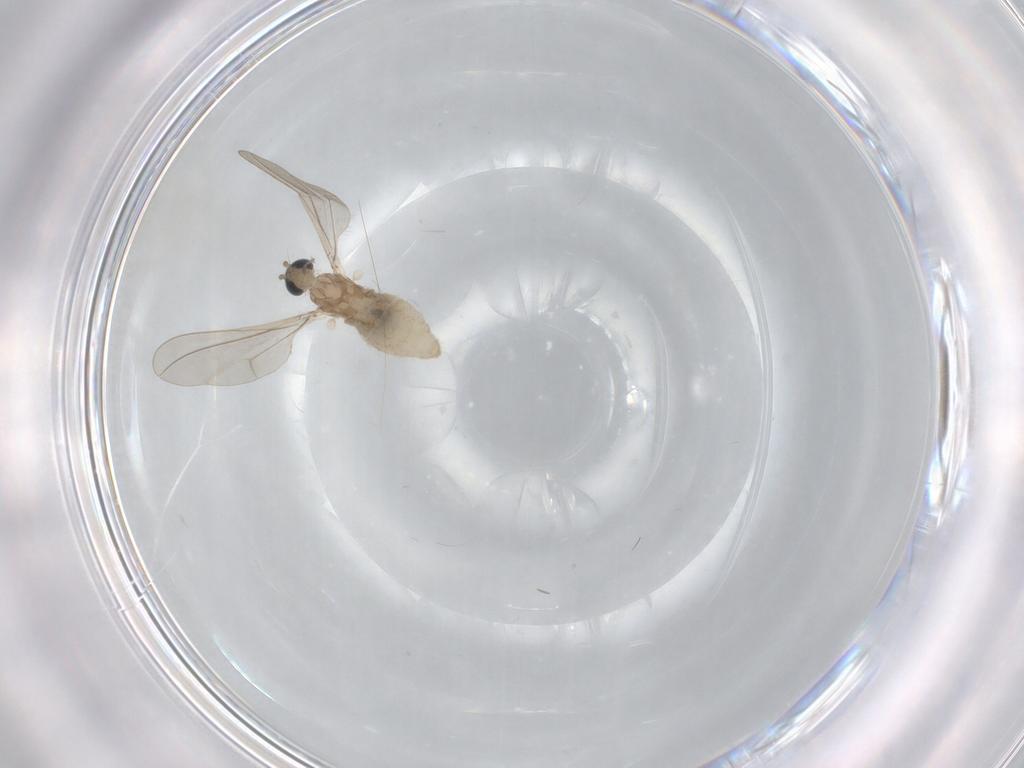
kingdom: Animalia
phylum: Arthropoda
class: Insecta
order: Diptera
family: Cecidomyiidae
